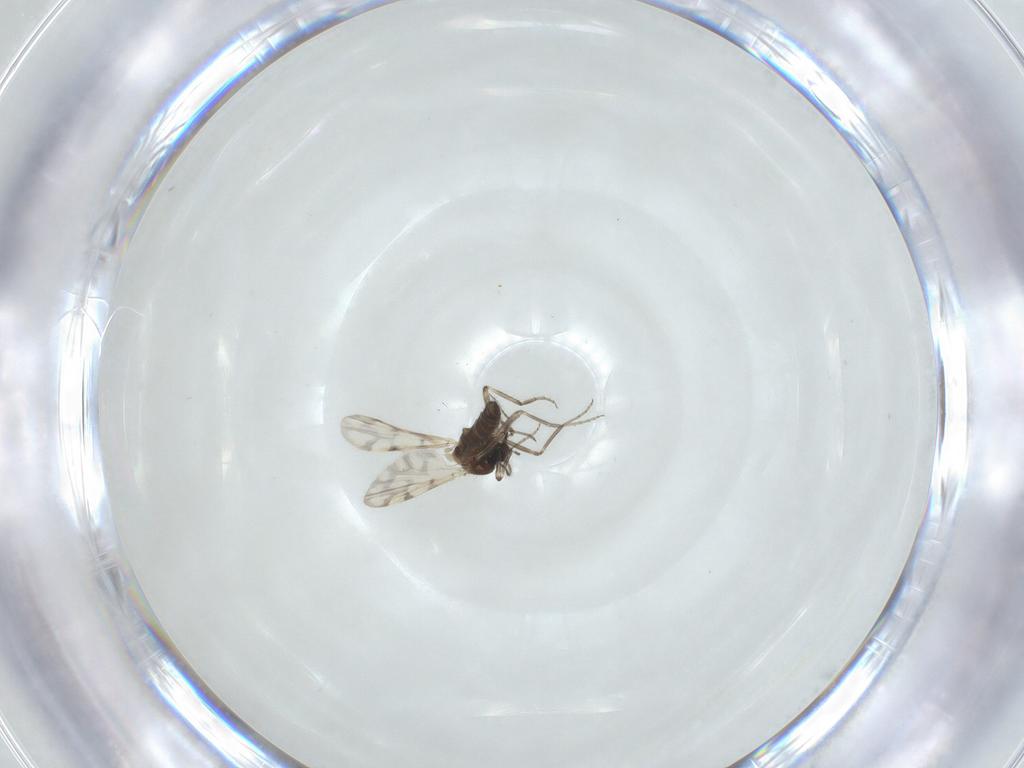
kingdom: Animalia
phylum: Arthropoda
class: Insecta
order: Diptera
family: Ceratopogonidae
